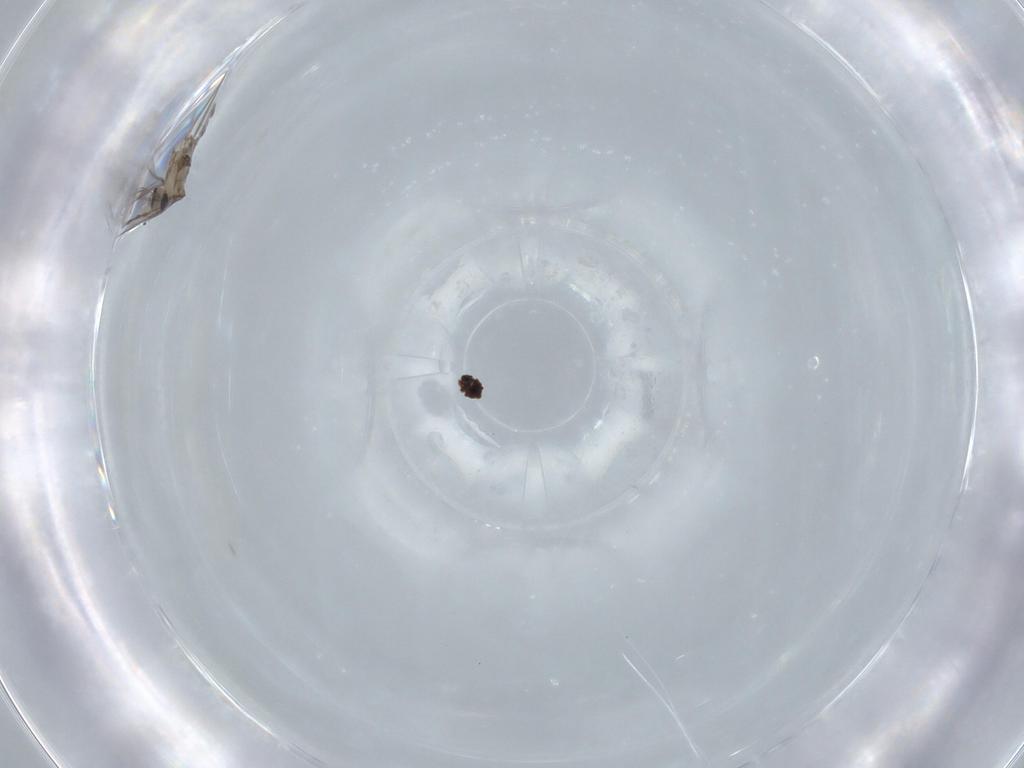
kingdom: Animalia
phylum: Arthropoda
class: Insecta
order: Diptera
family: Cecidomyiidae
